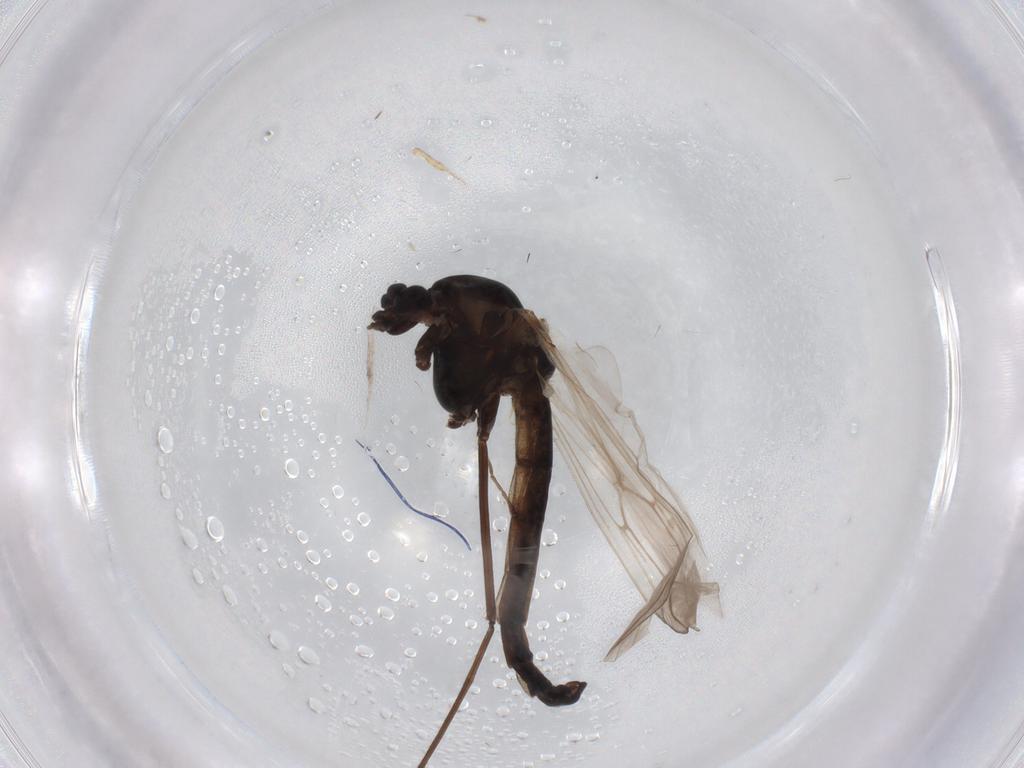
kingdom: Animalia
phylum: Arthropoda
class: Insecta
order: Diptera
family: Chironomidae
